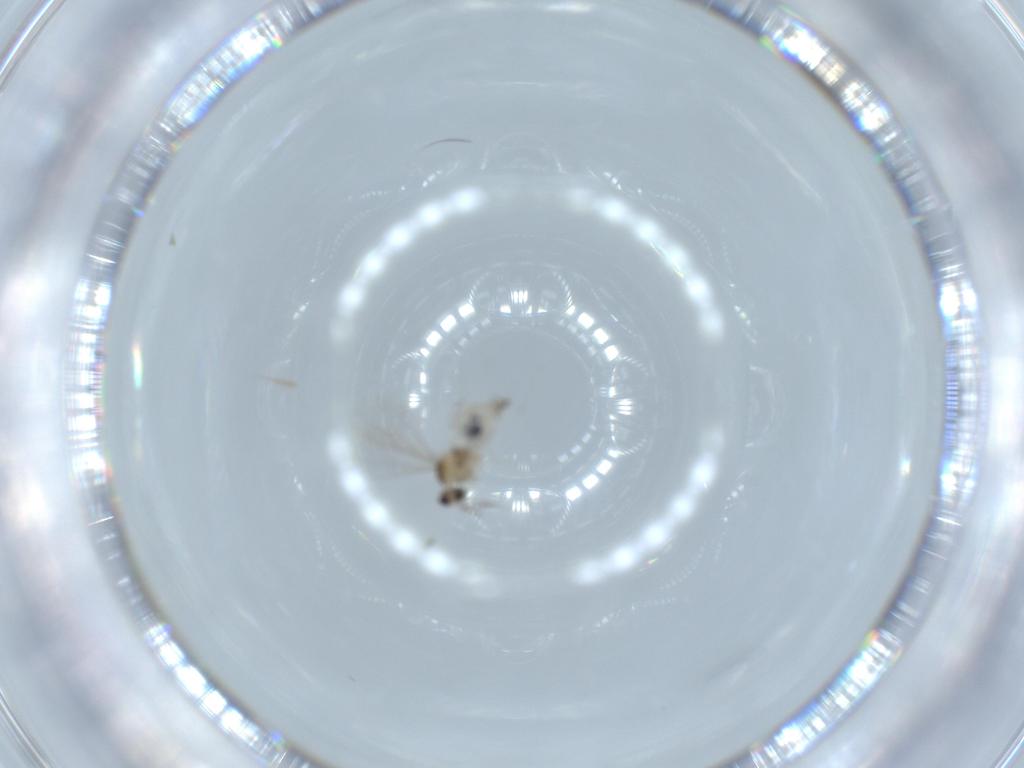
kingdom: Animalia
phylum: Arthropoda
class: Insecta
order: Diptera
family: Cecidomyiidae
